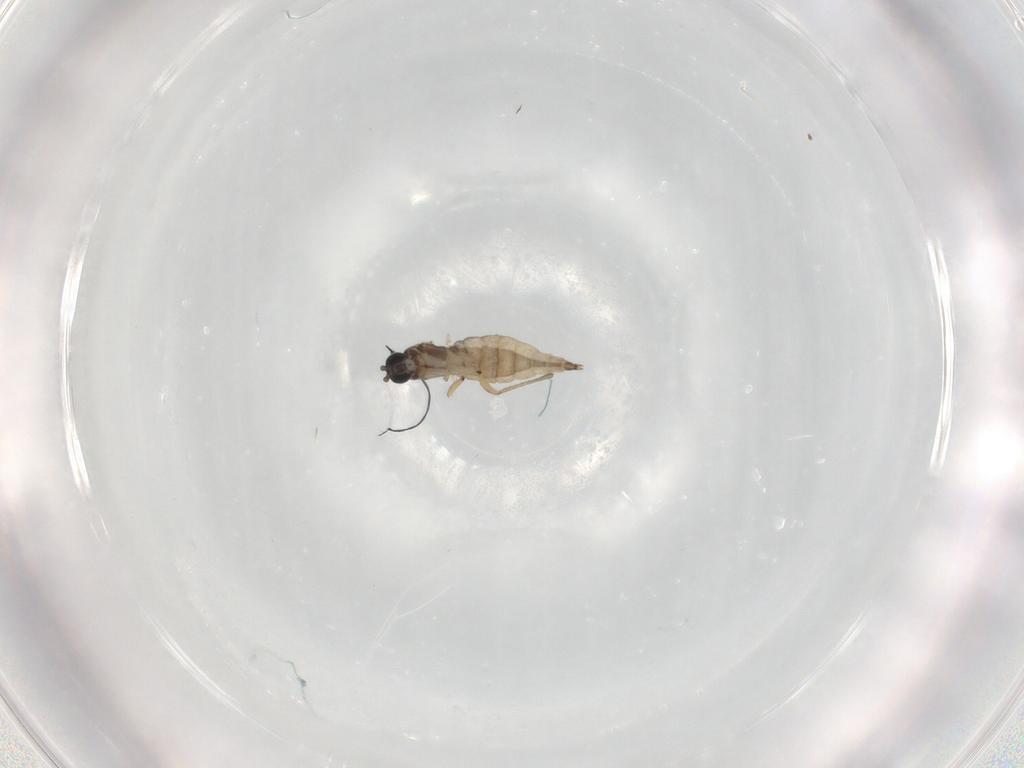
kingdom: Animalia
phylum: Arthropoda
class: Insecta
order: Diptera
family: Sciaridae
